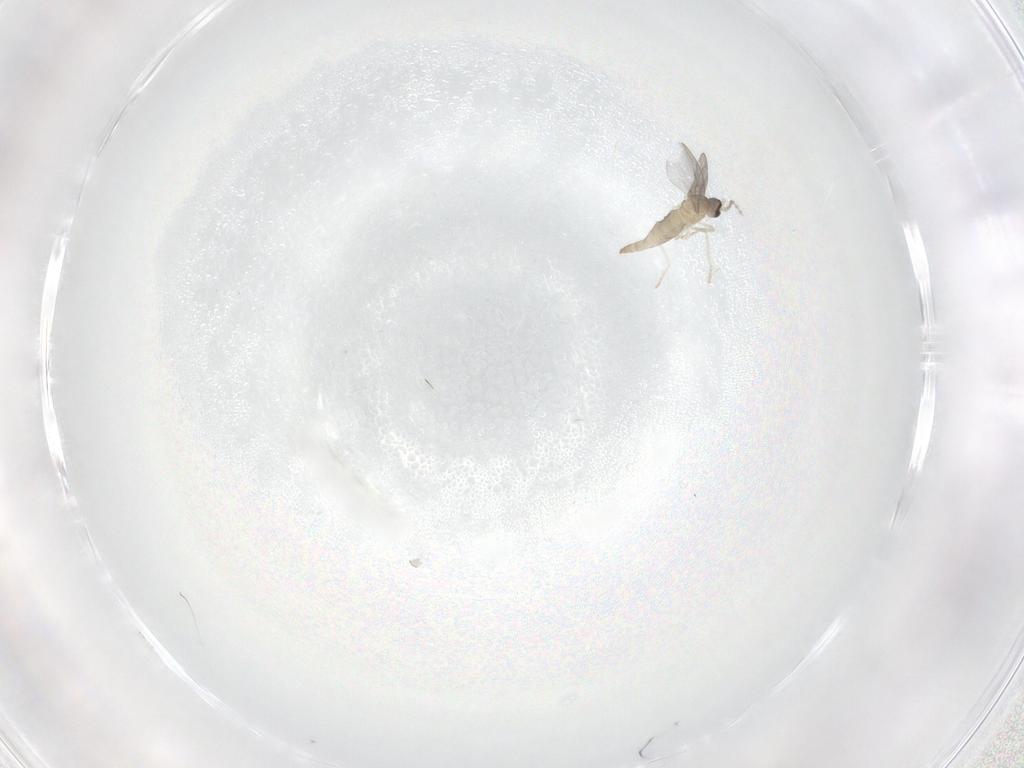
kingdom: Animalia
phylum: Arthropoda
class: Insecta
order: Diptera
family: Cecidomyiidae
